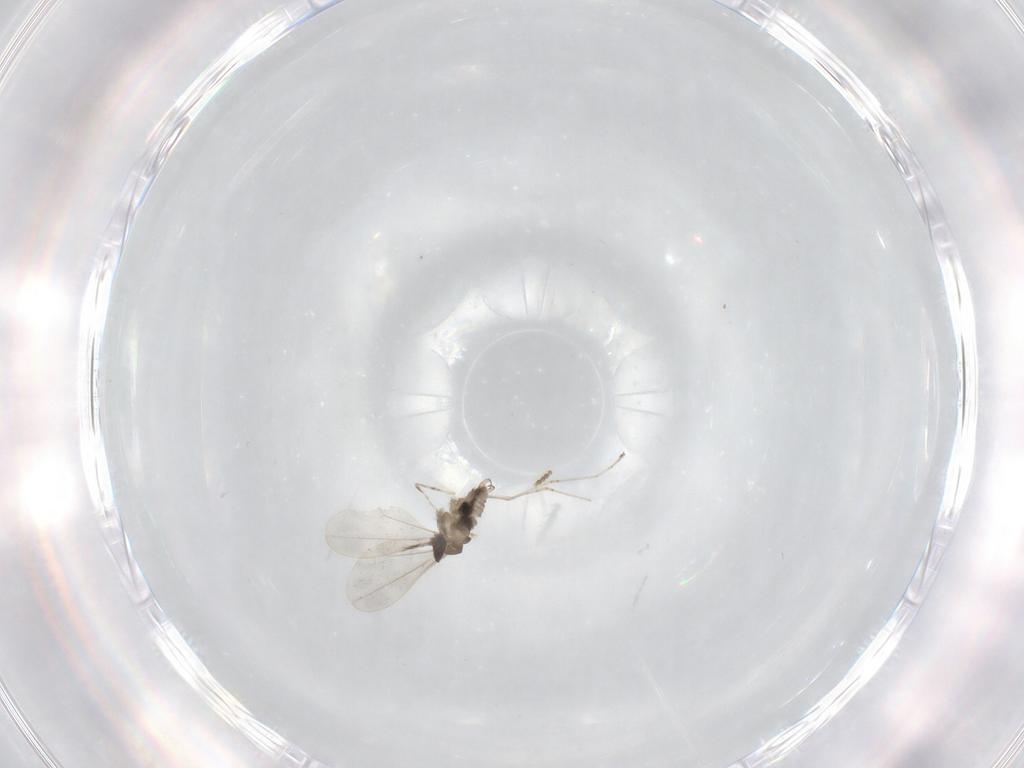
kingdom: Animalia
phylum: Arthropoda
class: Insecta
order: Diptera
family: Cecidomyiidae
